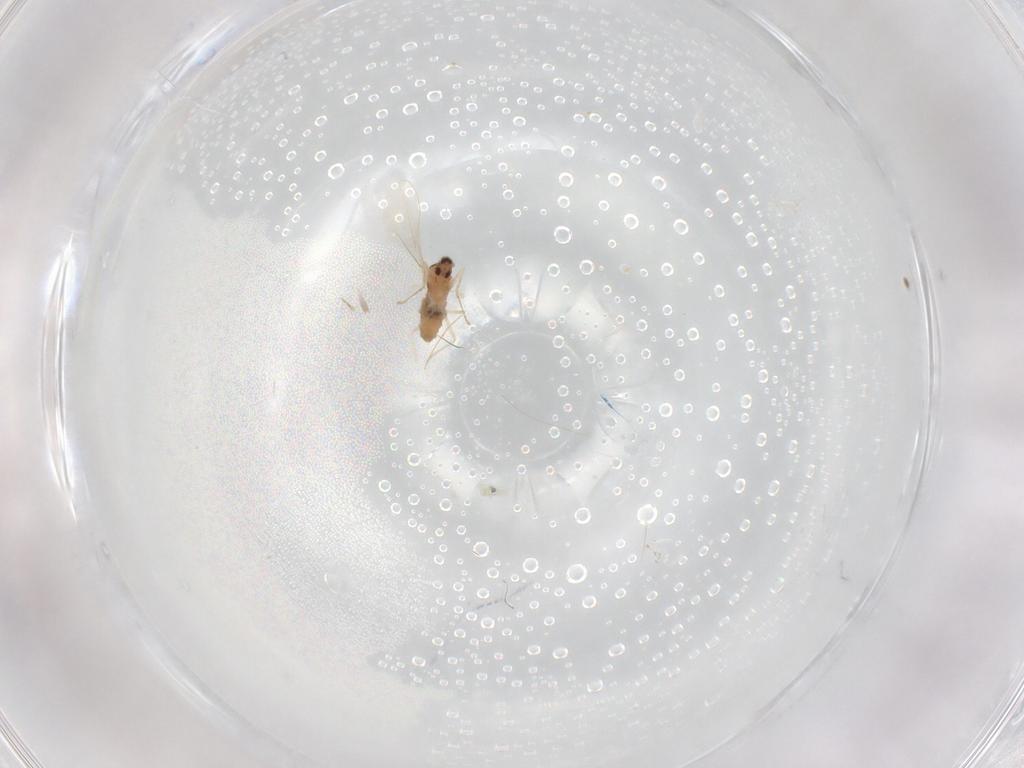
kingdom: Animalia
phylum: Arthropoda
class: Insecta
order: Diptera
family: Cecidomyiidae
